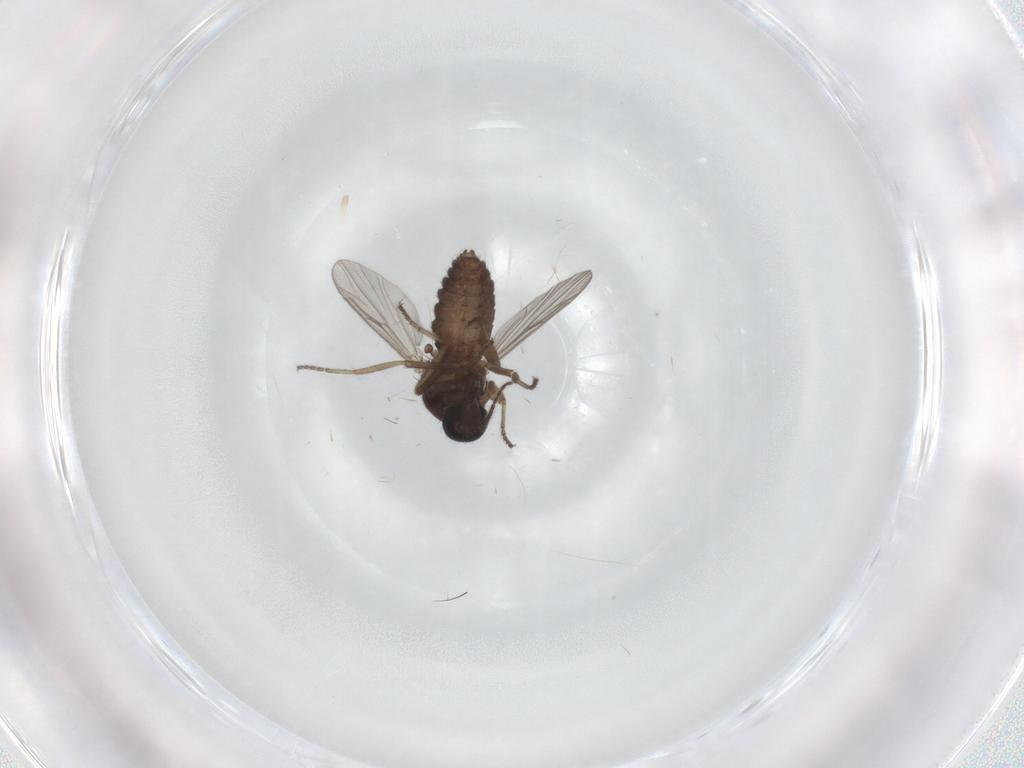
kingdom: Animalia
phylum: Arthropoda
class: Insecta
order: Diptera
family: Ceratopogonidae
